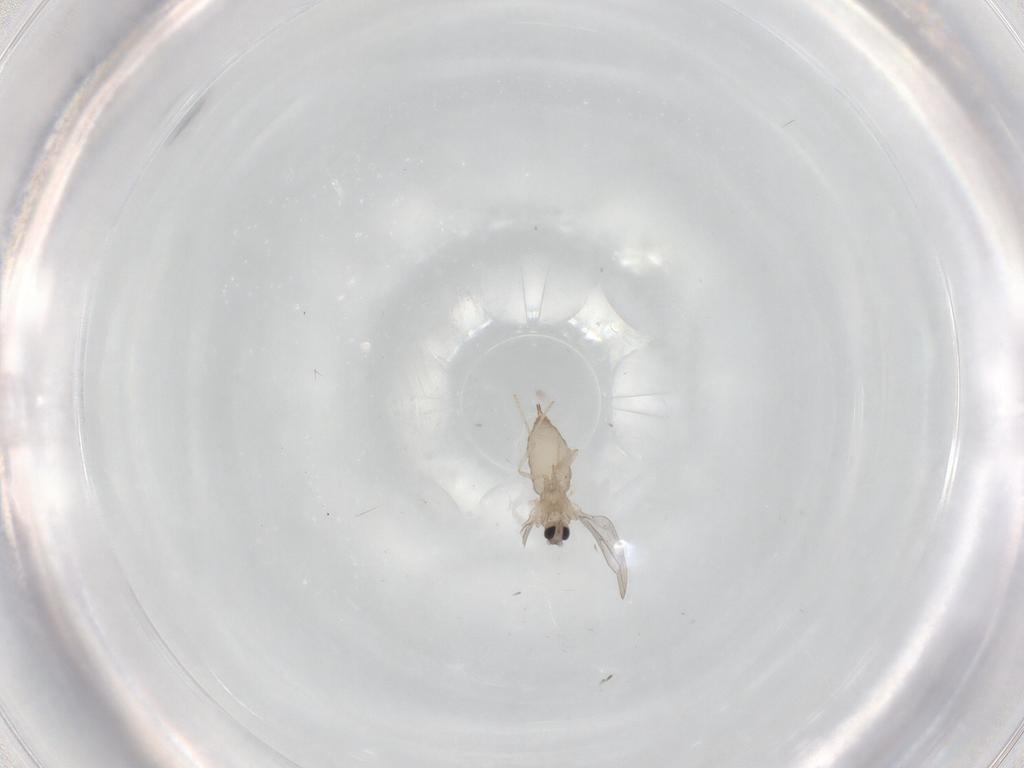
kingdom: Animalia
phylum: Arthropoda
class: Insecta
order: Diptera
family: Cecidomyiidae
